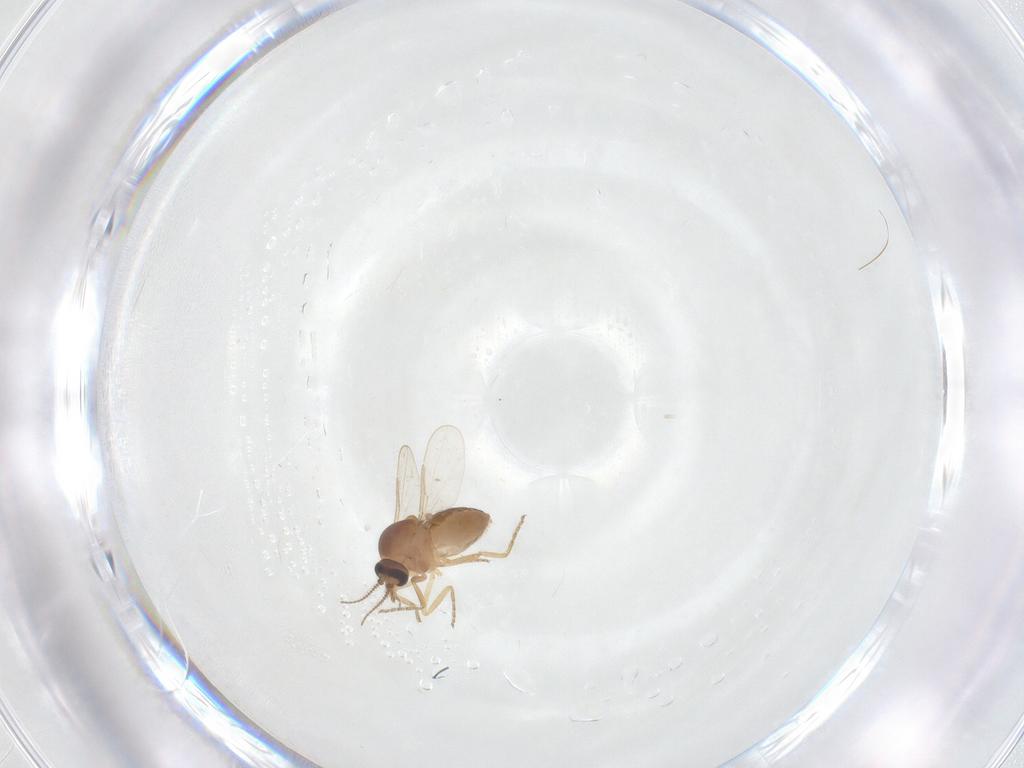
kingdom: Animalia
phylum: Arthropoda
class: Insecta
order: Diptera
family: Ceratopogonidae
